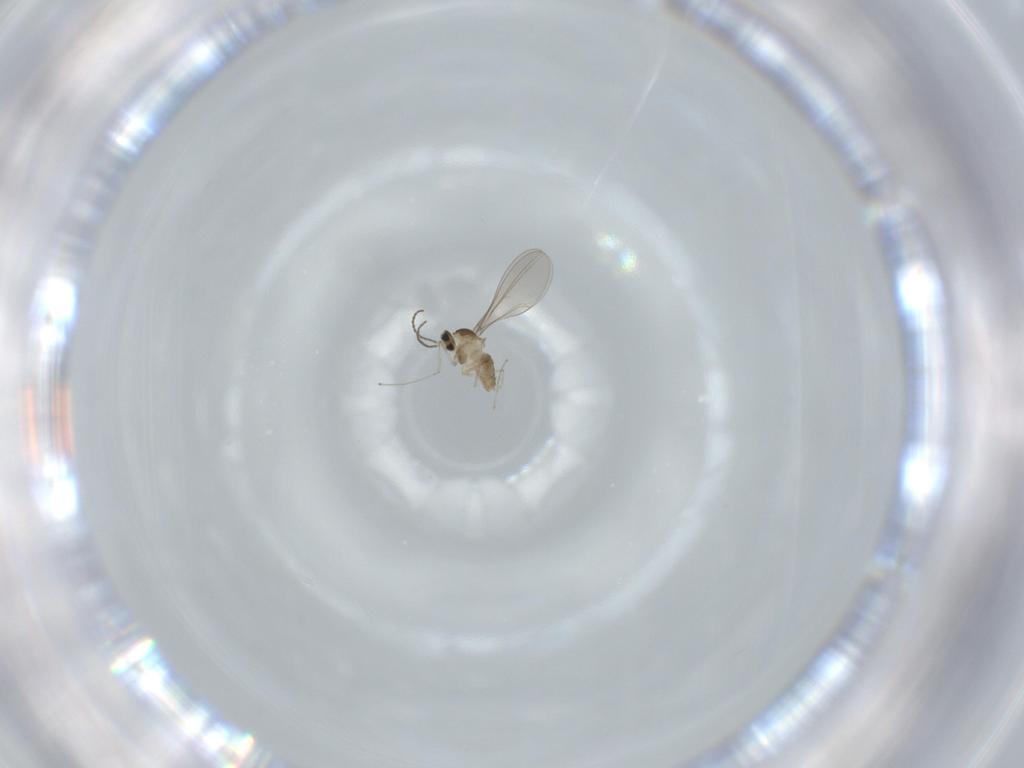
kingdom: Animalia
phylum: Arthropoda
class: Insecta
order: Diptera
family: Cecidomyiidae
